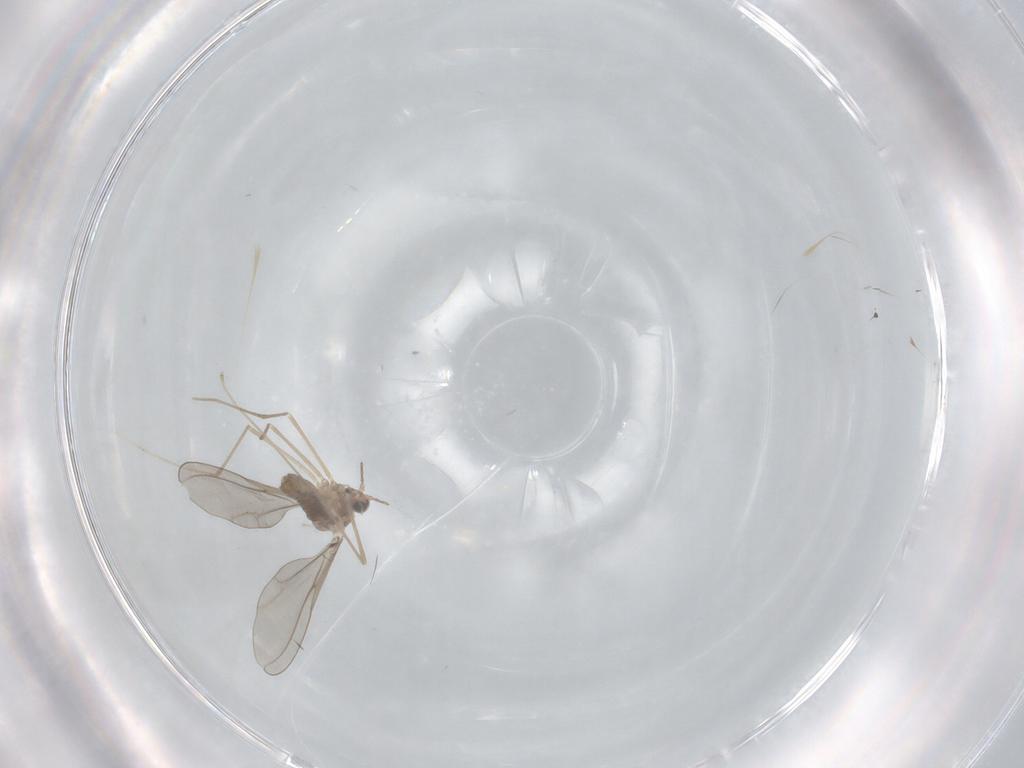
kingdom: Animalia
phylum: Arthropoda
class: Insecta
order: Diptera
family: Cecidomyiidae
